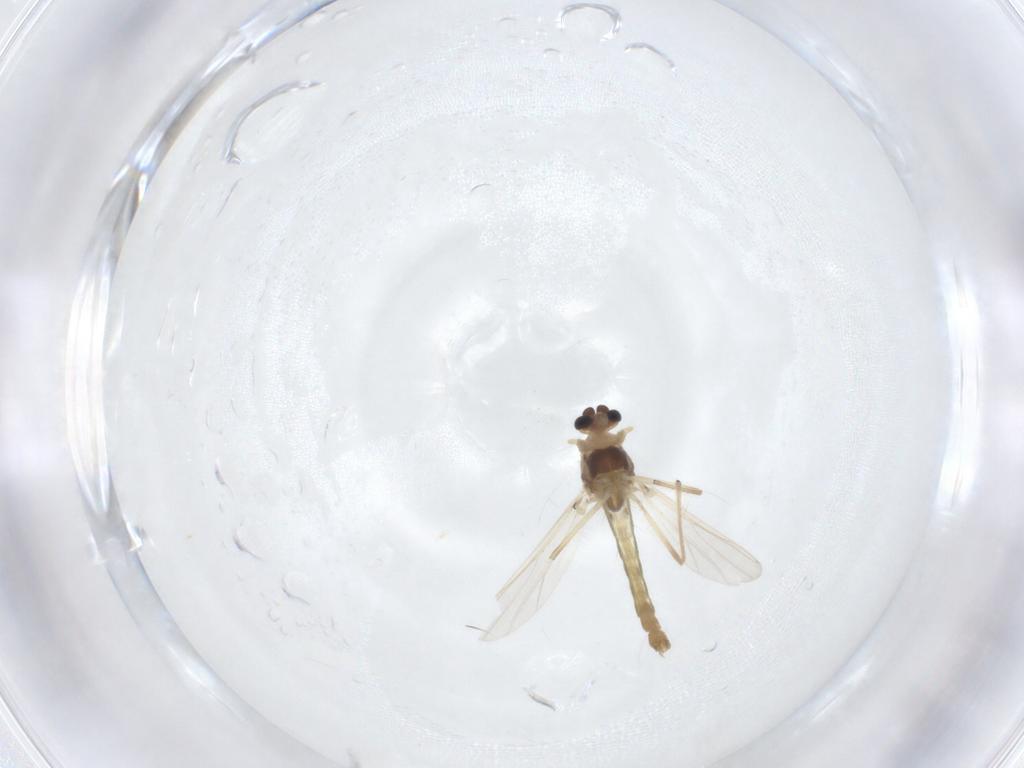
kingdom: Animalia
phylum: Arthropoda
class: Insecta
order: Diptera
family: Chironomidae
